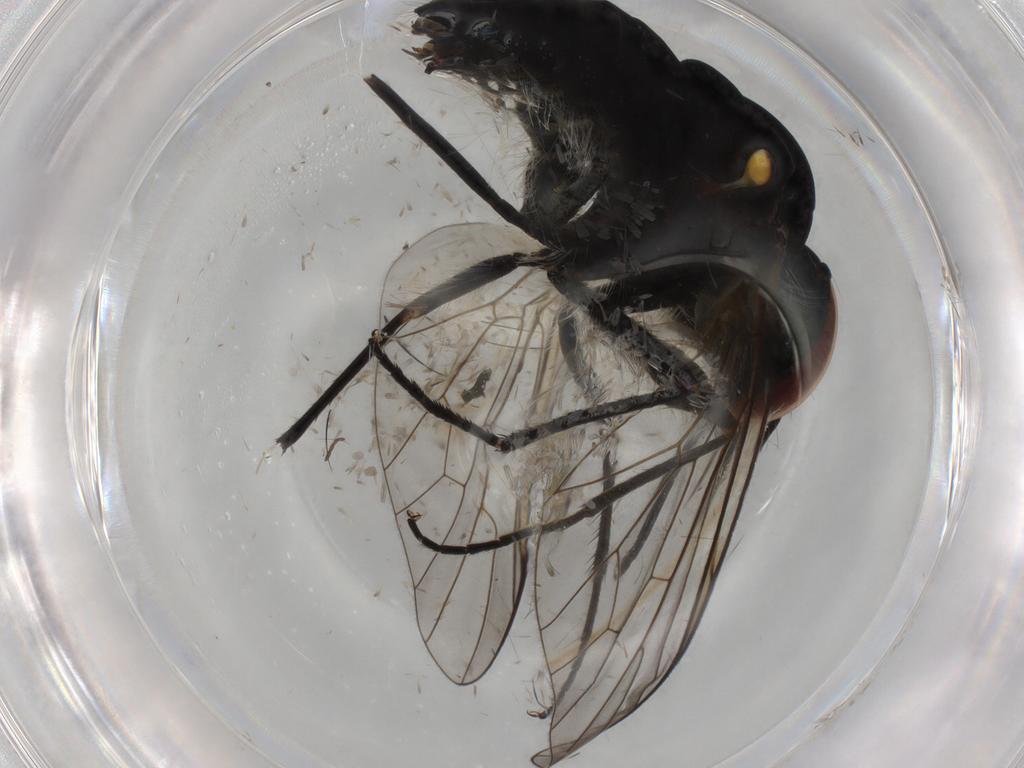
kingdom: Animalia
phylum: Arthropoda
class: Insecta
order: Diptera
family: Bombyliidae
